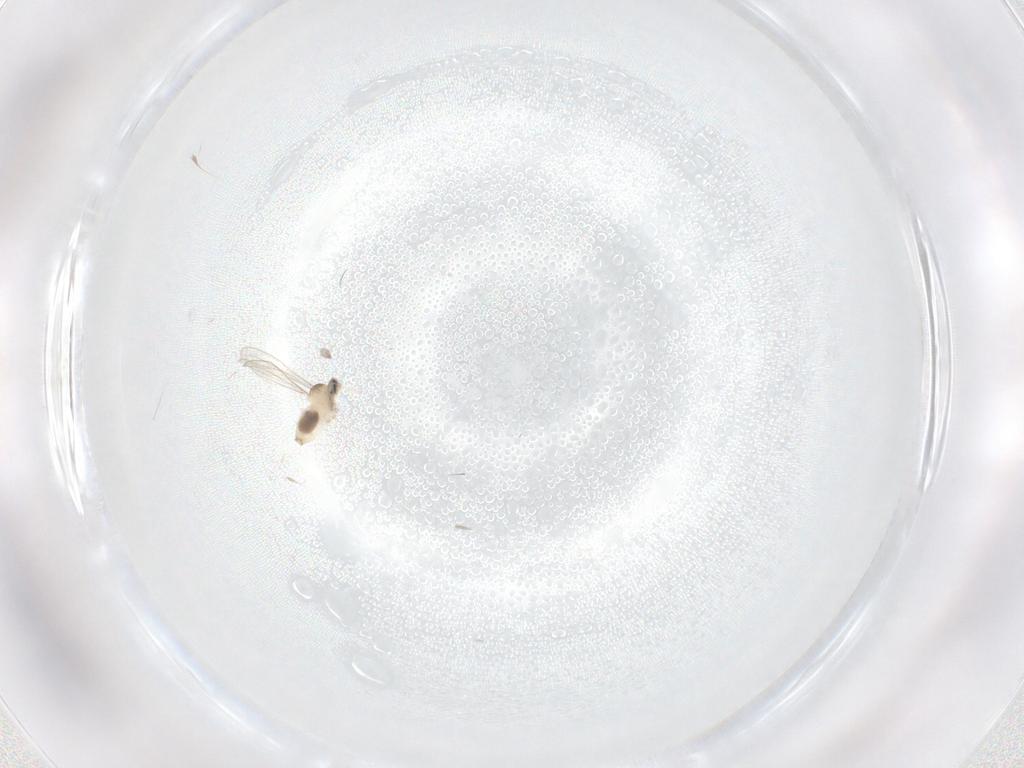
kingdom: Animalia
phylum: Arthropoda
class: Insecta
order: Diptera
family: Cecidomyiidae
